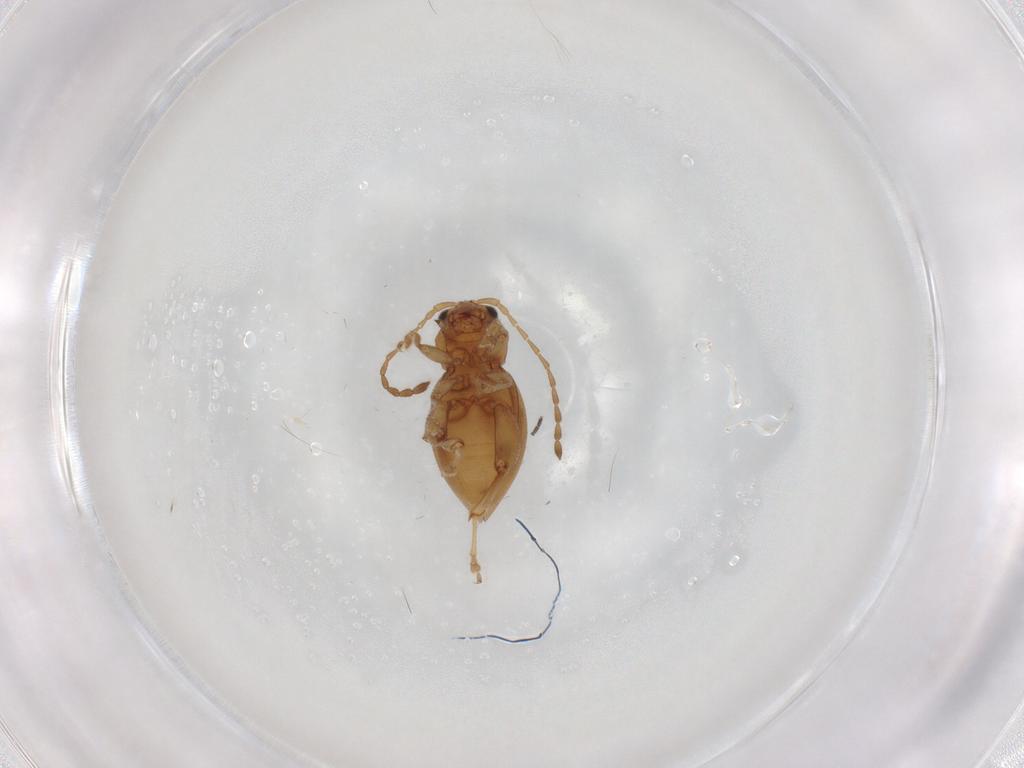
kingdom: Animalia
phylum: Arthropoda
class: Insecta
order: Coleoptera
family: Chrysomelidae
